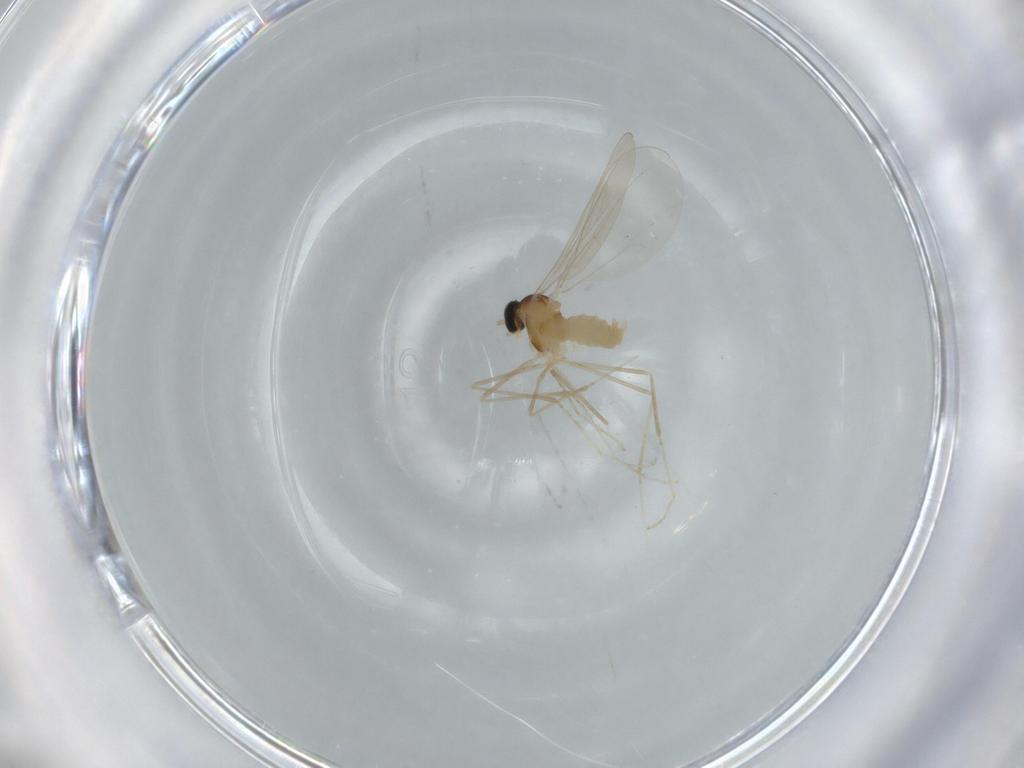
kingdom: Animalia
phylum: Arthropoda
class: Insecta
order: Diptera
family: Cecidomyiidae
